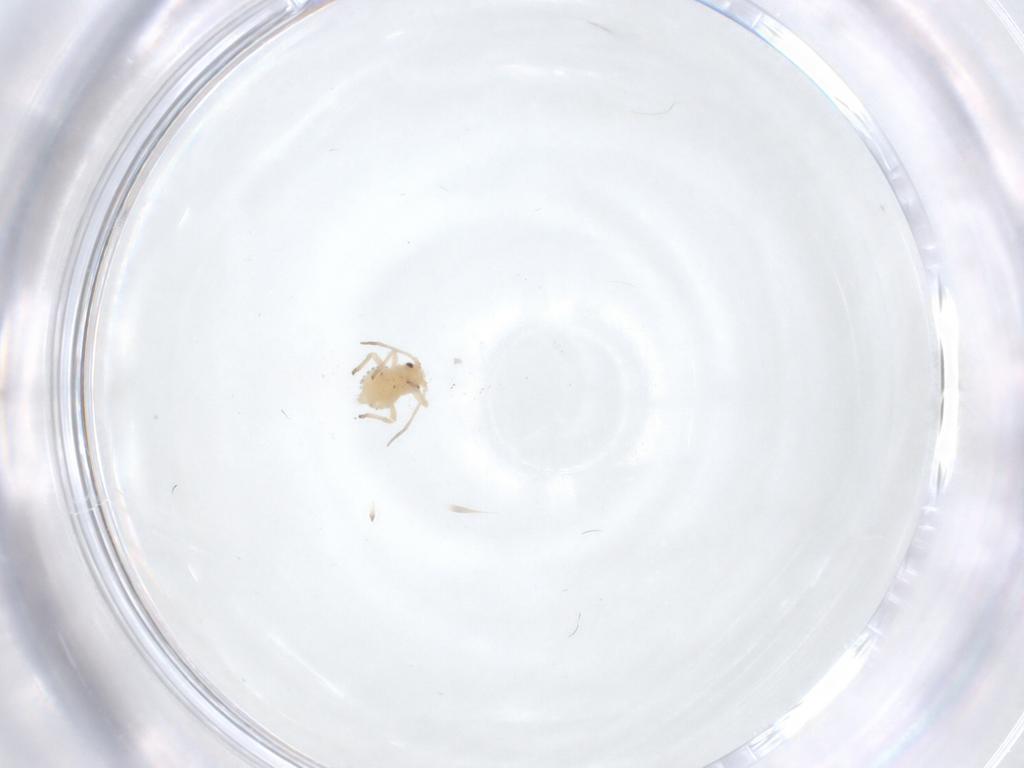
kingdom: Animalia
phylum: Arthropoda
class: Insecta
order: Hemiptera
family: Aphididae
